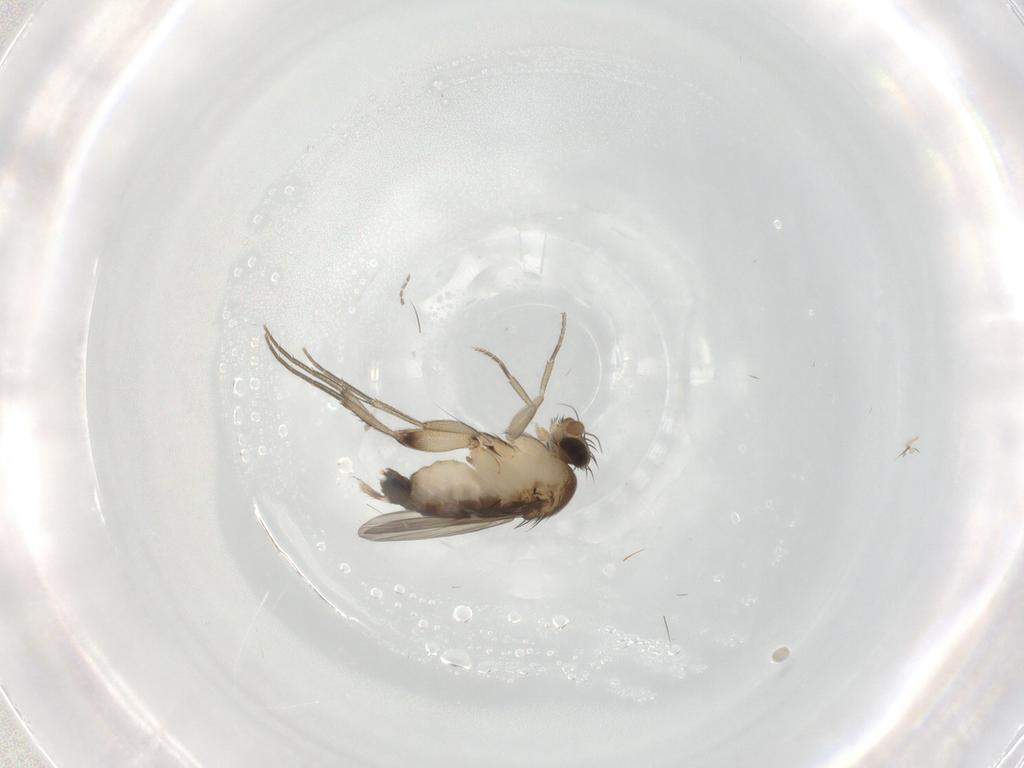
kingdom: Animalia
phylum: Arthropoda
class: Insecta
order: Diptera
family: Phoridae
